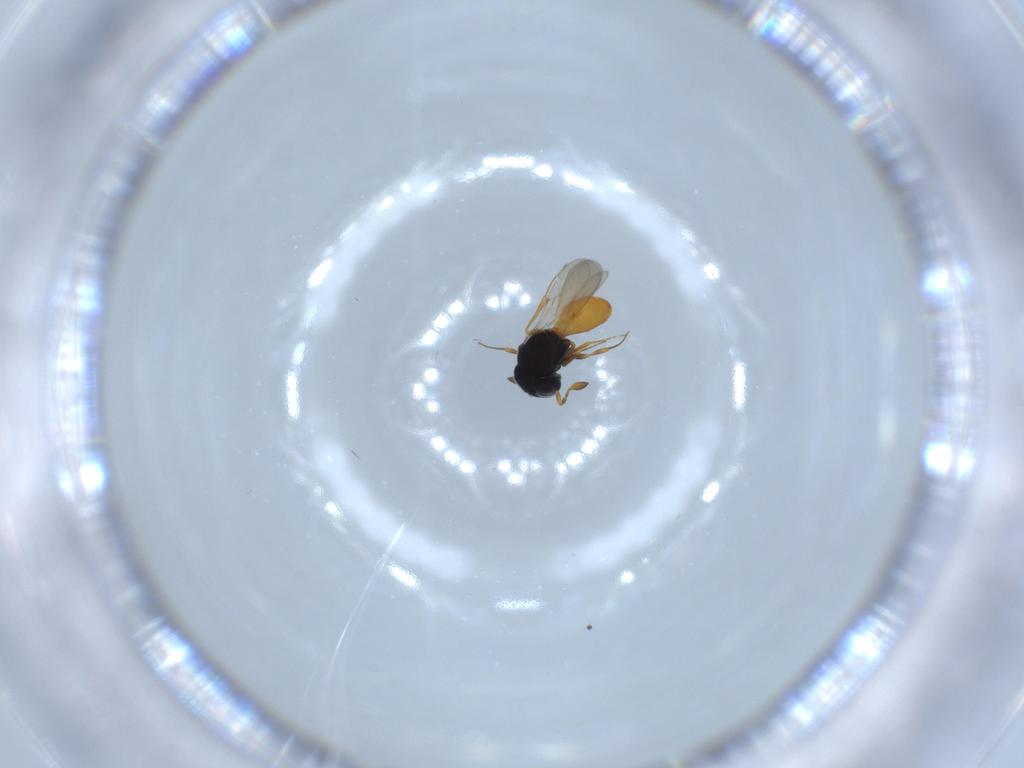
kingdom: Animalia
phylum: Arthropoda
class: Insecta
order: Hymenoptera
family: Scelionidae
